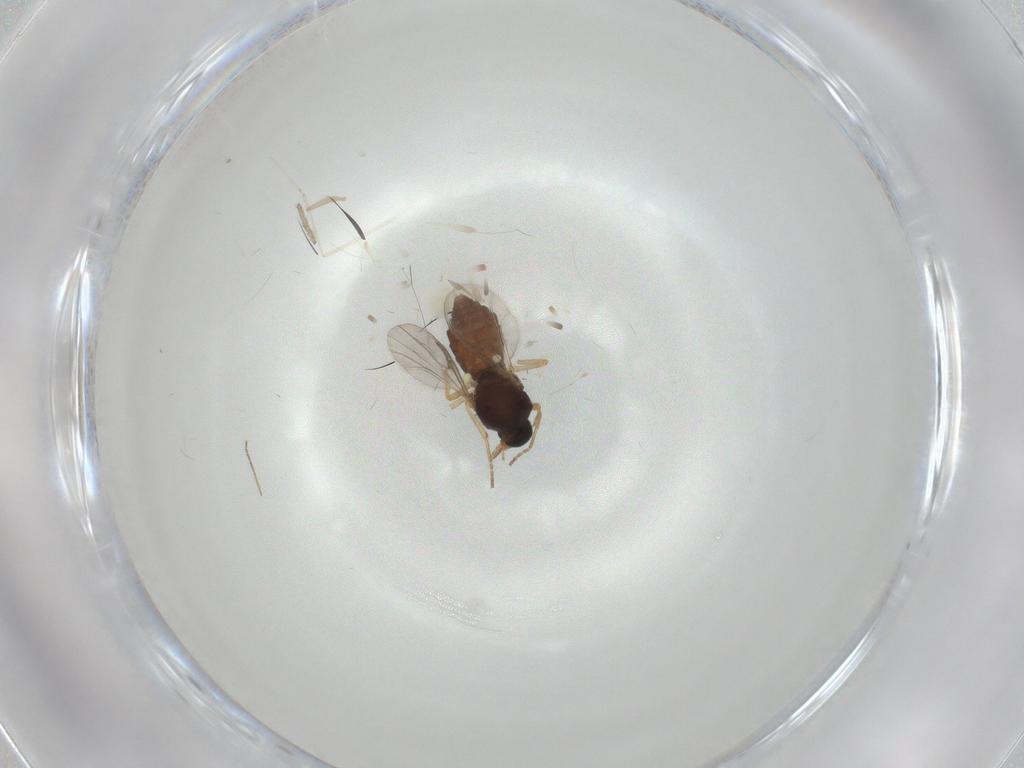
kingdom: Animalia
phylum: Arthropoda
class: Insecta
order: Diptera
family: Ceratopogonidae
